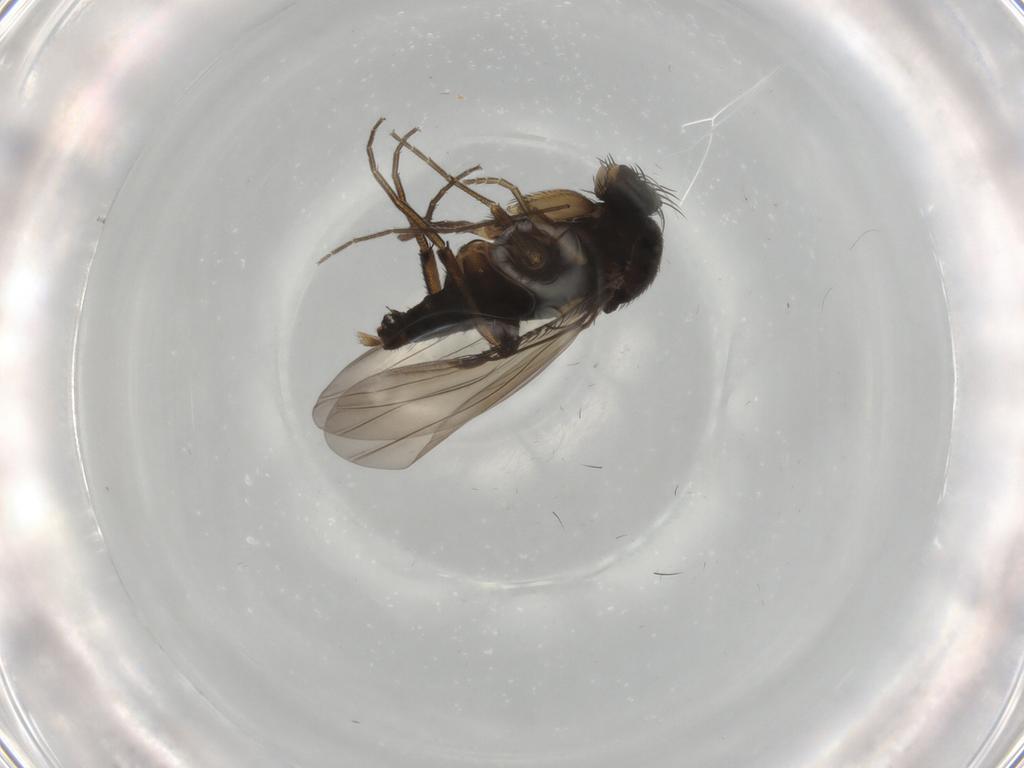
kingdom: Animalia
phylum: Arthropoda
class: Insecta
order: Diptera
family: Phoridae
